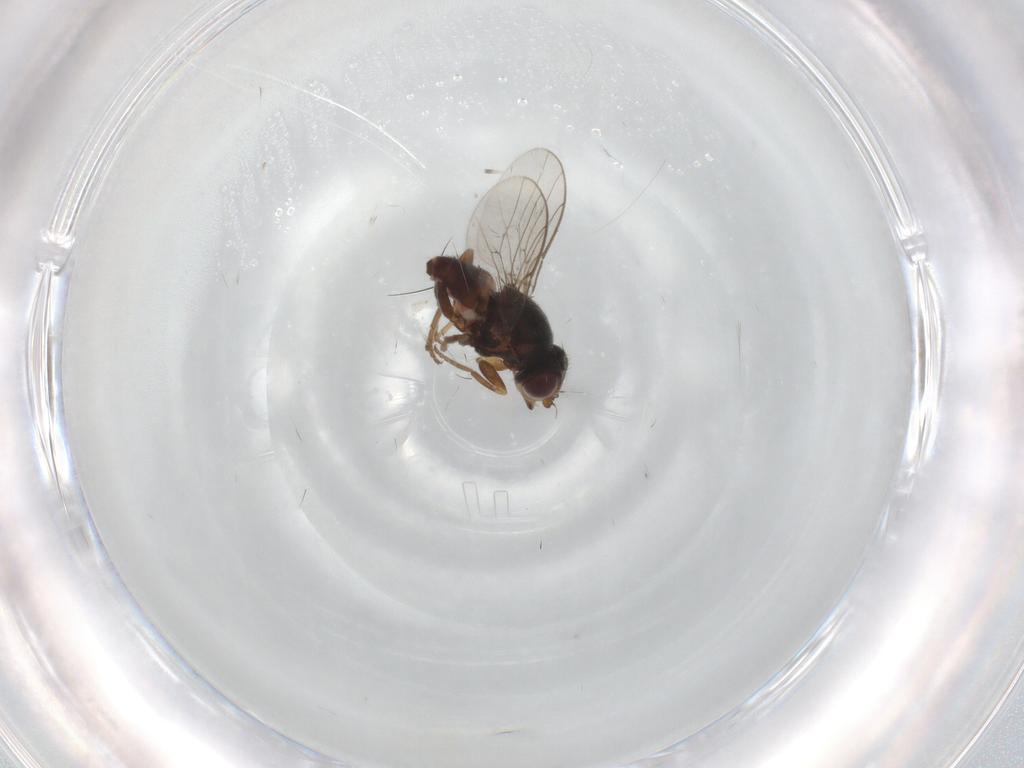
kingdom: Animalia
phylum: Arthropoda
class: Insecta
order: Diptera
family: Chloropidae
